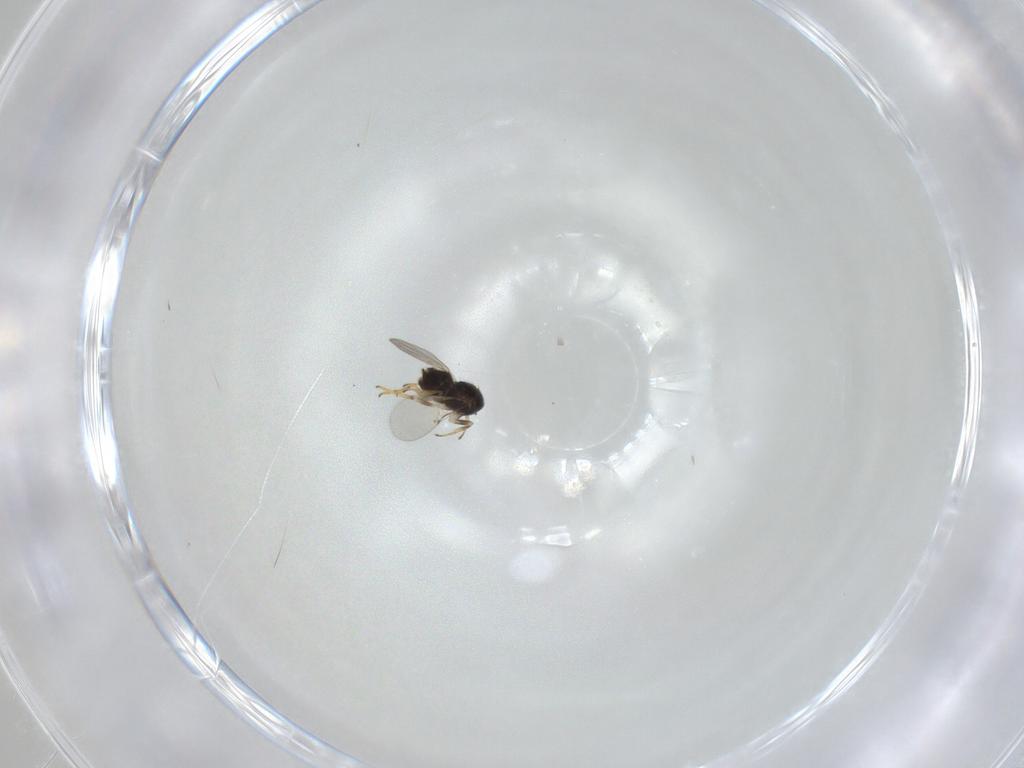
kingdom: Animalia
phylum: Arthropoda
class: Insecta
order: Hymenoptera
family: Encyrtidae
